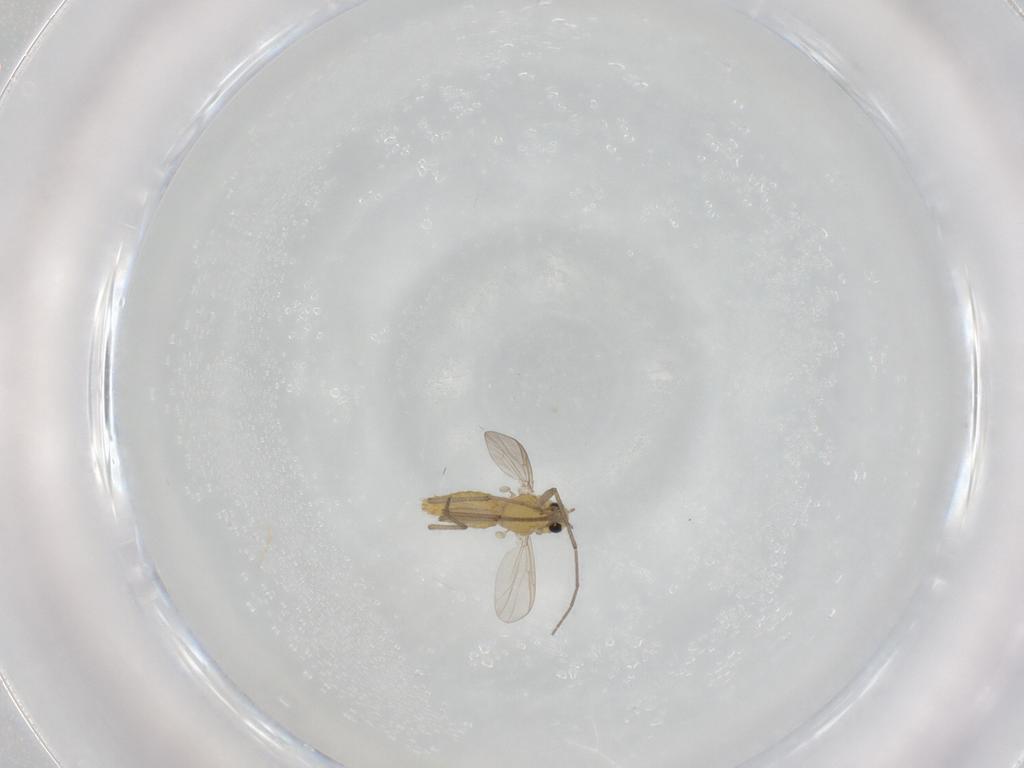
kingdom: Animalia
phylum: Arthropoda
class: Insecta
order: Diptera
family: Chironomidae
